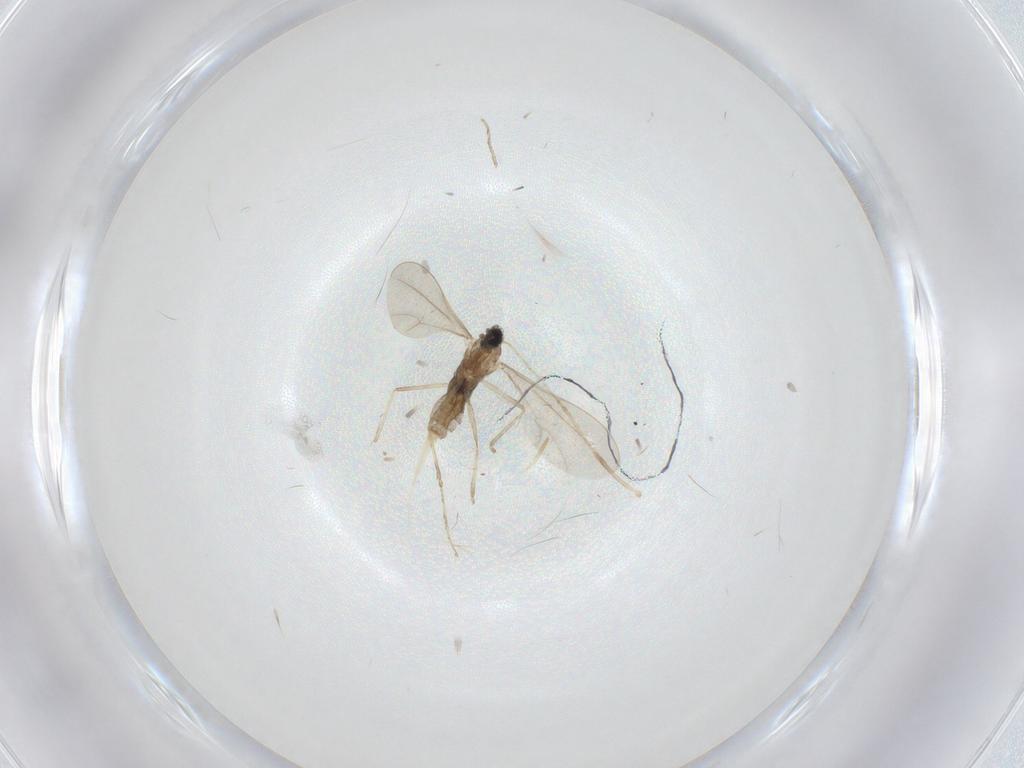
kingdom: Animalia
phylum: Arthropoda
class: Insecta
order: Diptera
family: Cecidomyiidae
